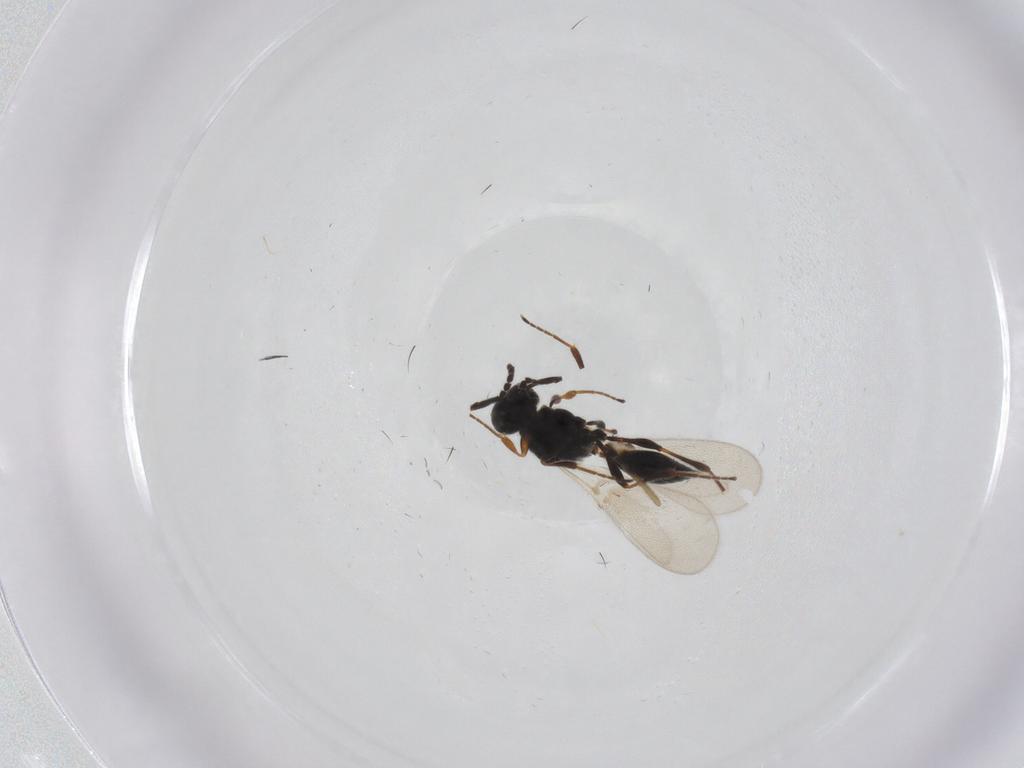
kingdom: Animalia
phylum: Arthropoda
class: Insecta
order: Hymenoptera
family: Platygastridae
